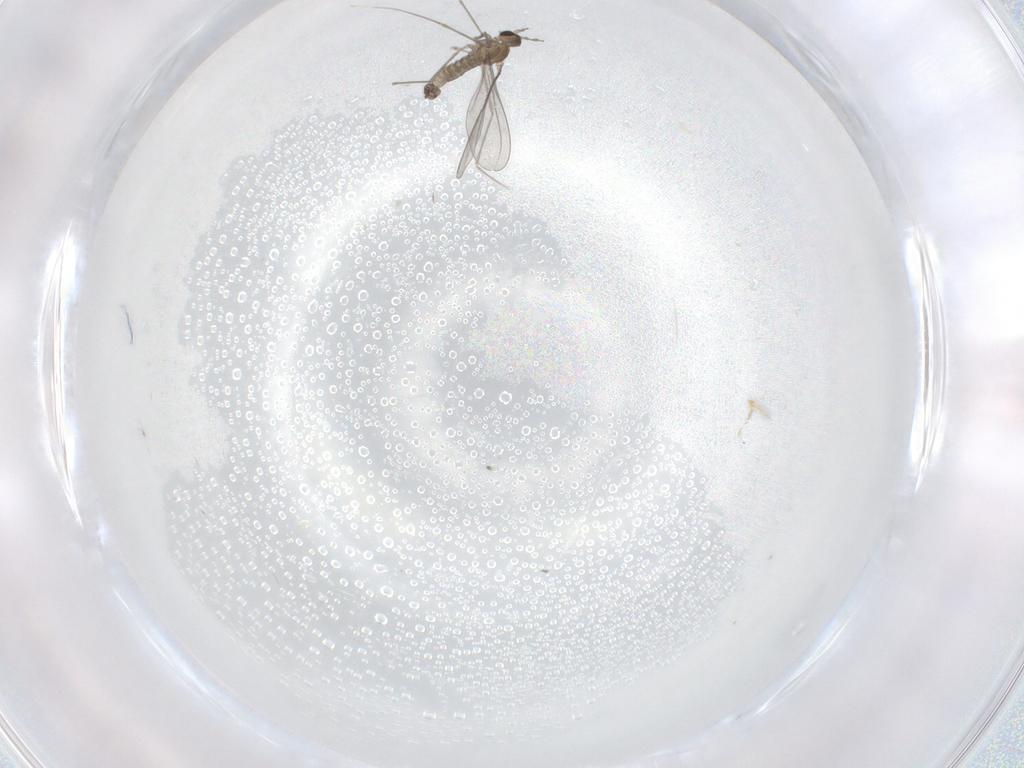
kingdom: Animalia
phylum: Arthropoda
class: Insecta
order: Diptera
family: Cecidomyiidae
